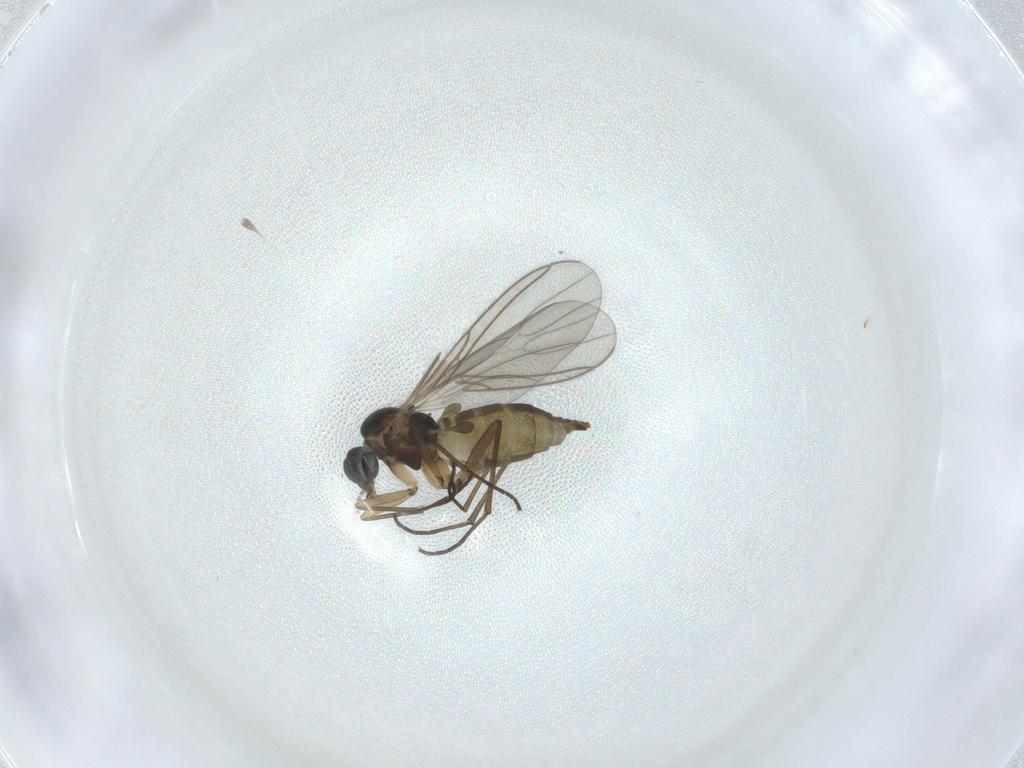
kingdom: Animalia
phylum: Arthropoda
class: Insecta
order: Diptera
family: Sciaridae
